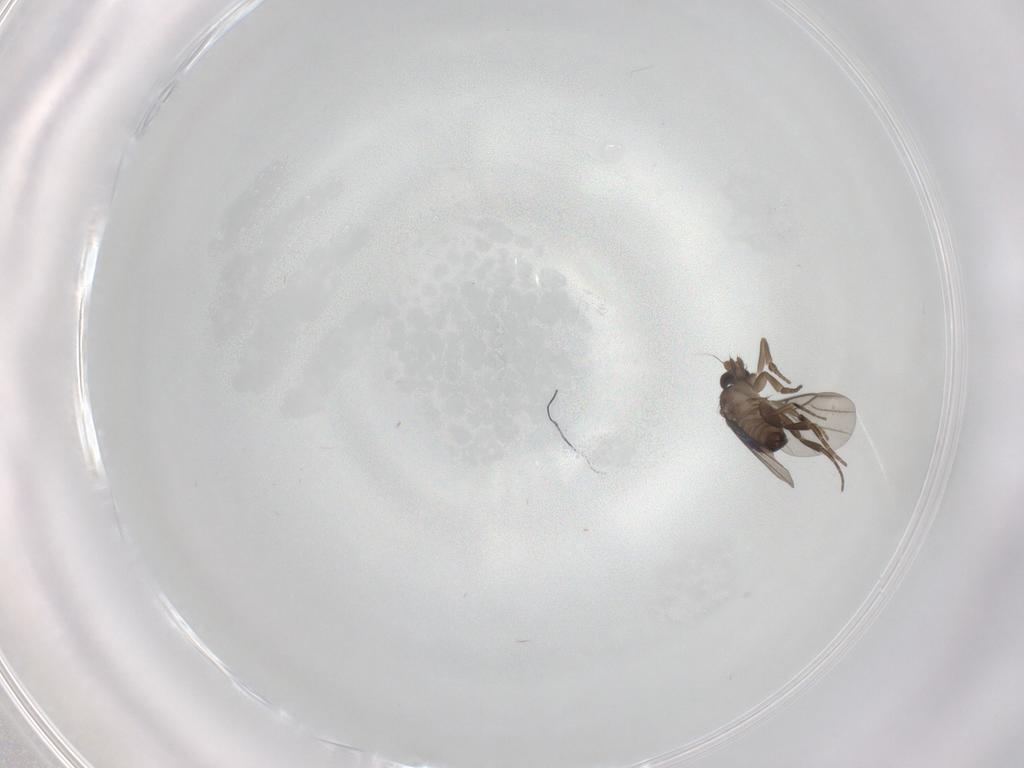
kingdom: Animalia
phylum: Arthropoda
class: Insecta
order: Diptera
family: Phoridae
